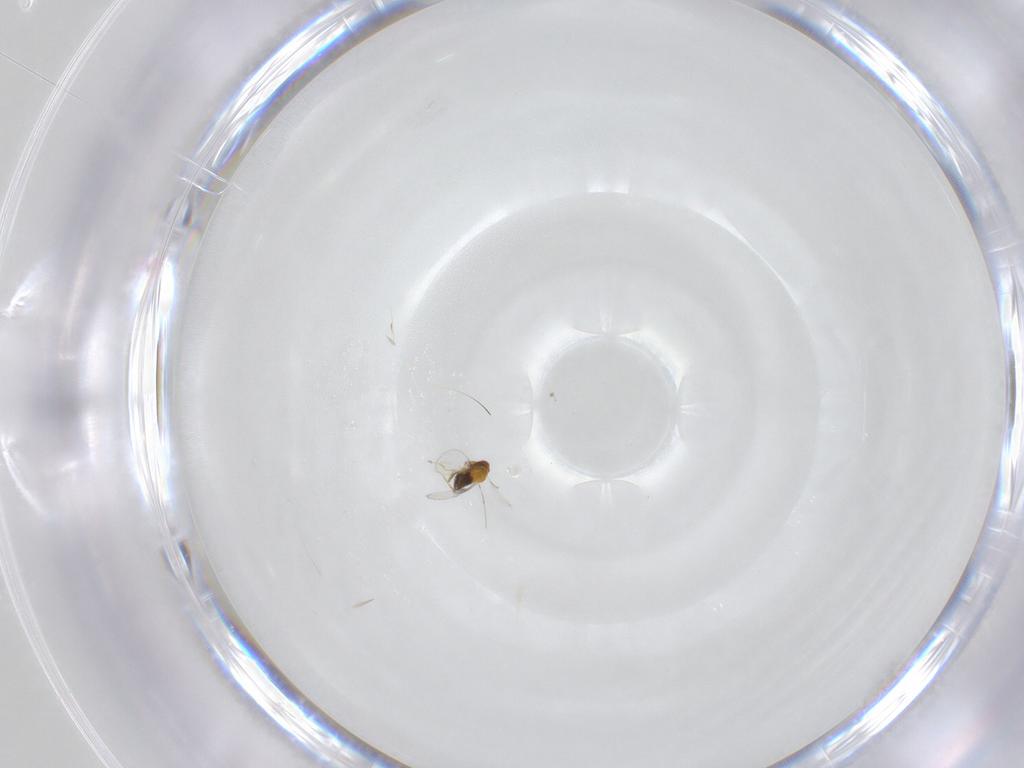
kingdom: Animalia
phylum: Arthropoda
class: Insecta
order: Hymenoptera
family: Trichogrammatidae
